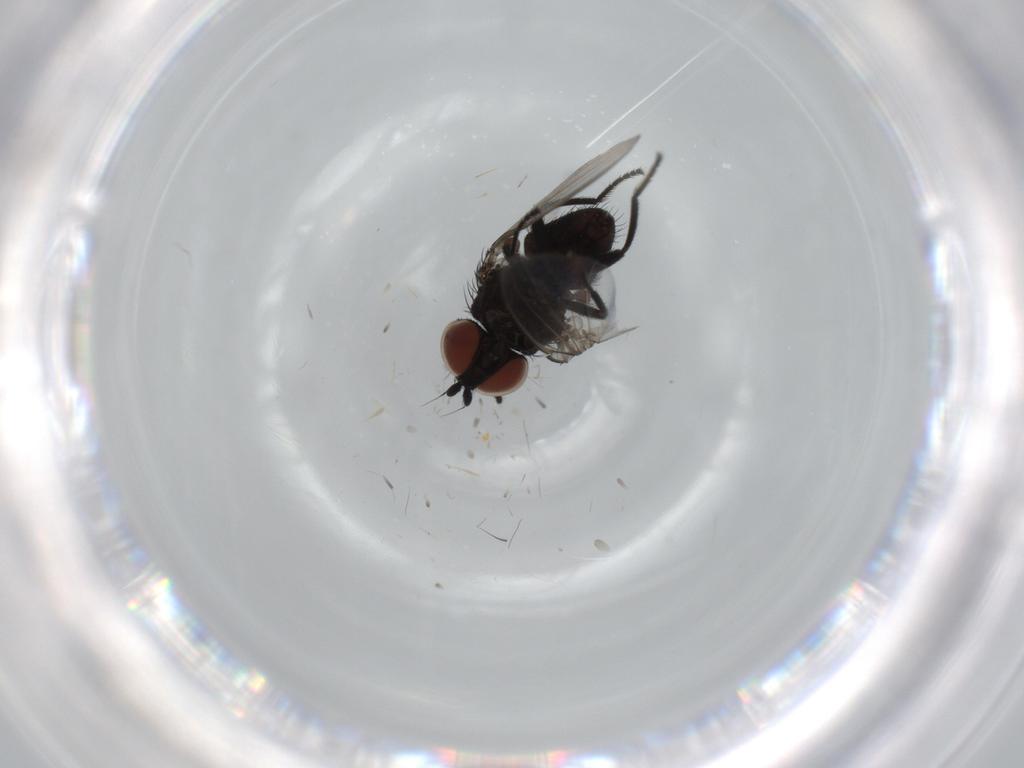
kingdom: Animalia
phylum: Arthropoda
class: Insecta
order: Diptera
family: Milichiidae
